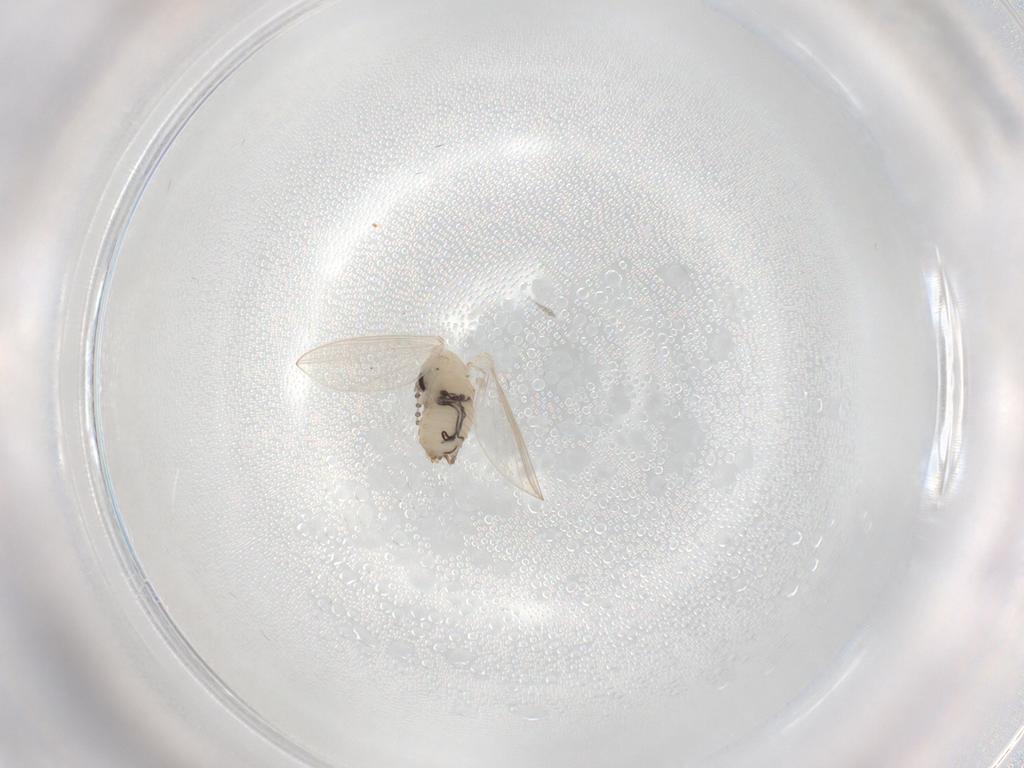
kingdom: Animalia
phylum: Arthropoda
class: Insecta
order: Diptera
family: Psychodidae
